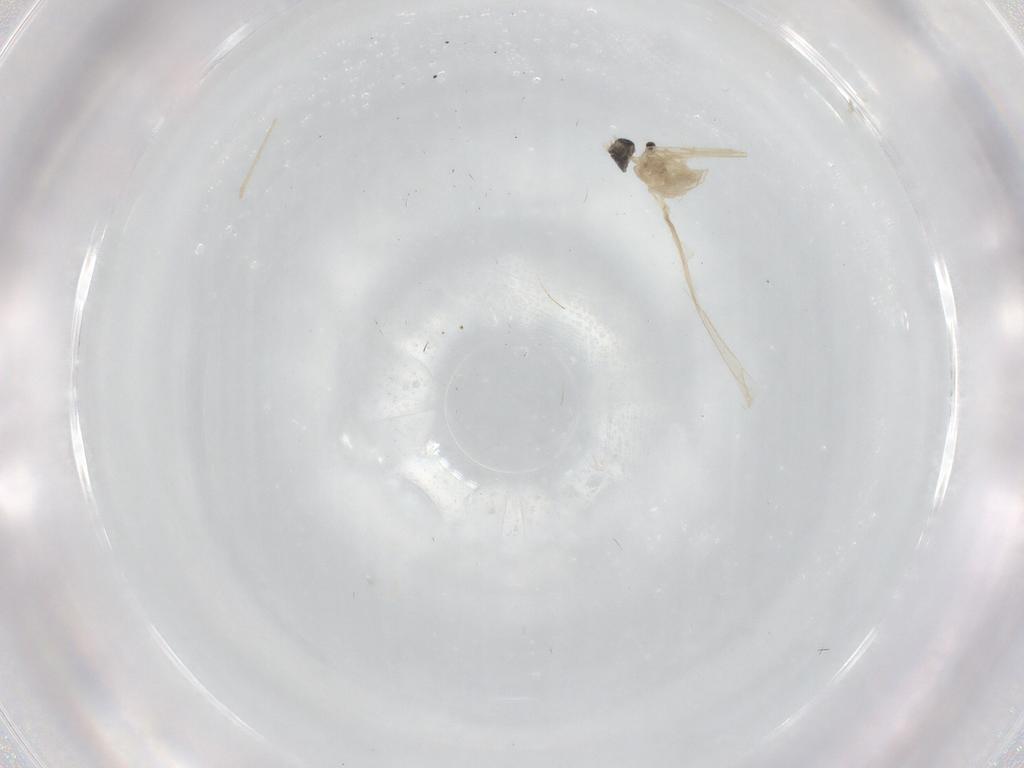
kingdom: Animalia
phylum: Arthropoda
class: Insecta
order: Diptera
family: Cecidomyiidae
